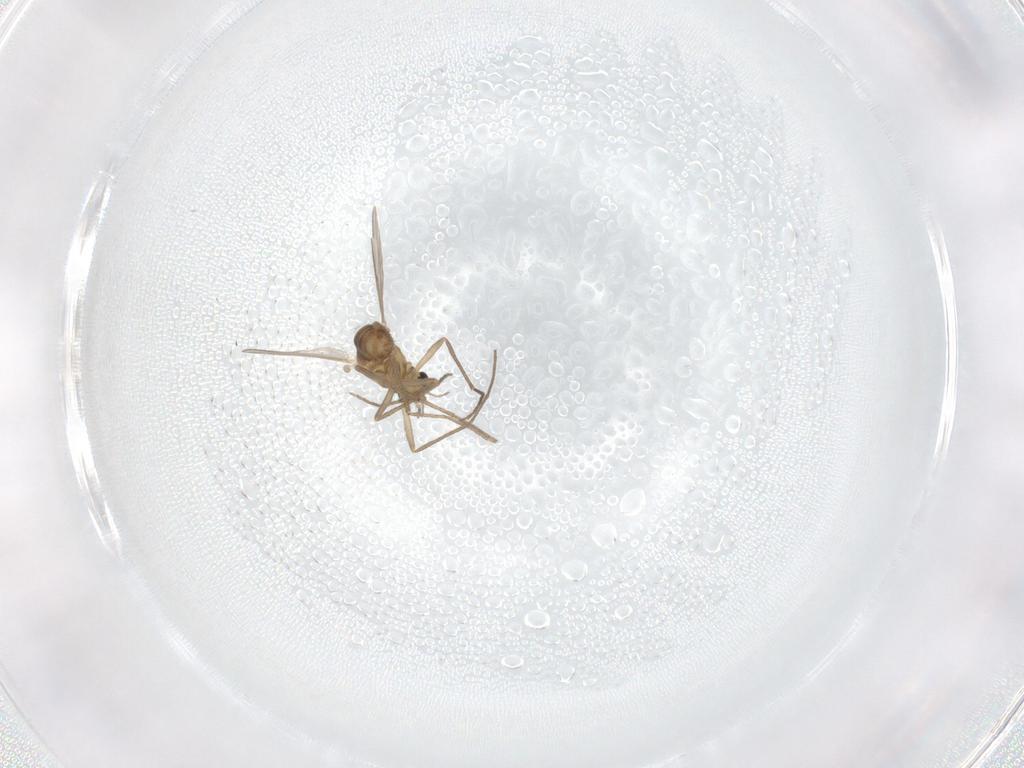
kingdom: Animalia
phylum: Arthropoda
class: Insecta
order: Diptera
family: Chironomidae
